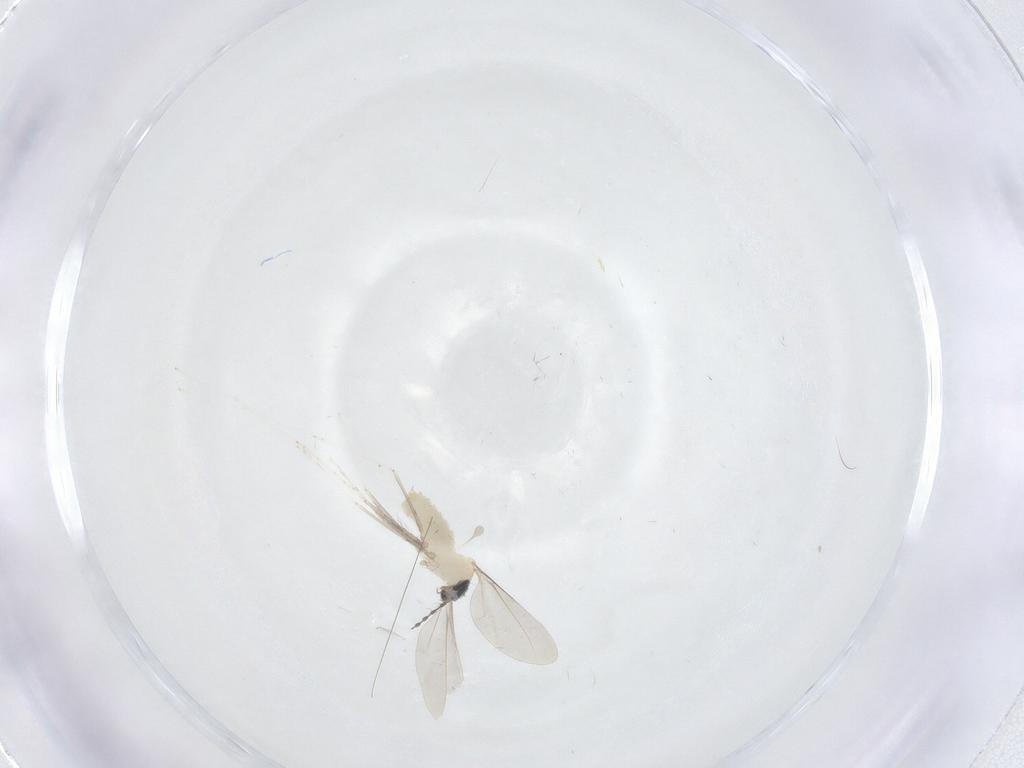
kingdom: Animalia
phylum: Arthropoda
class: Insecta
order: Diptera
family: Cecidomyiidae
